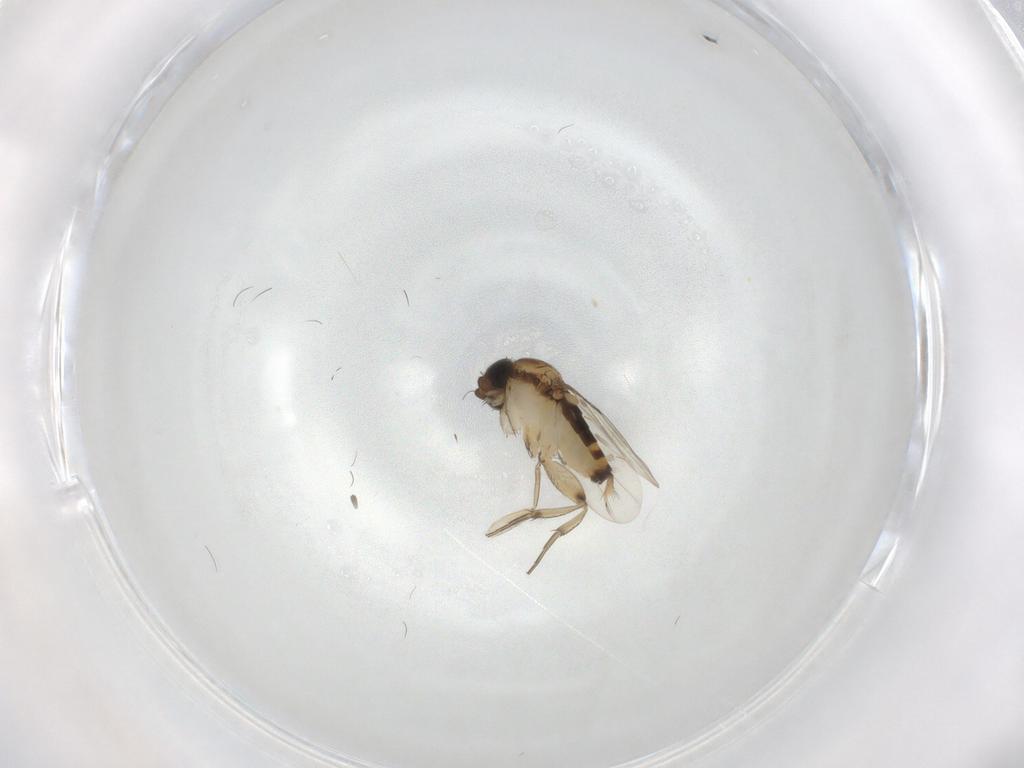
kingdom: Animalia
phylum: Arthropoda
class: Insecta
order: Diptera
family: Phoridae
